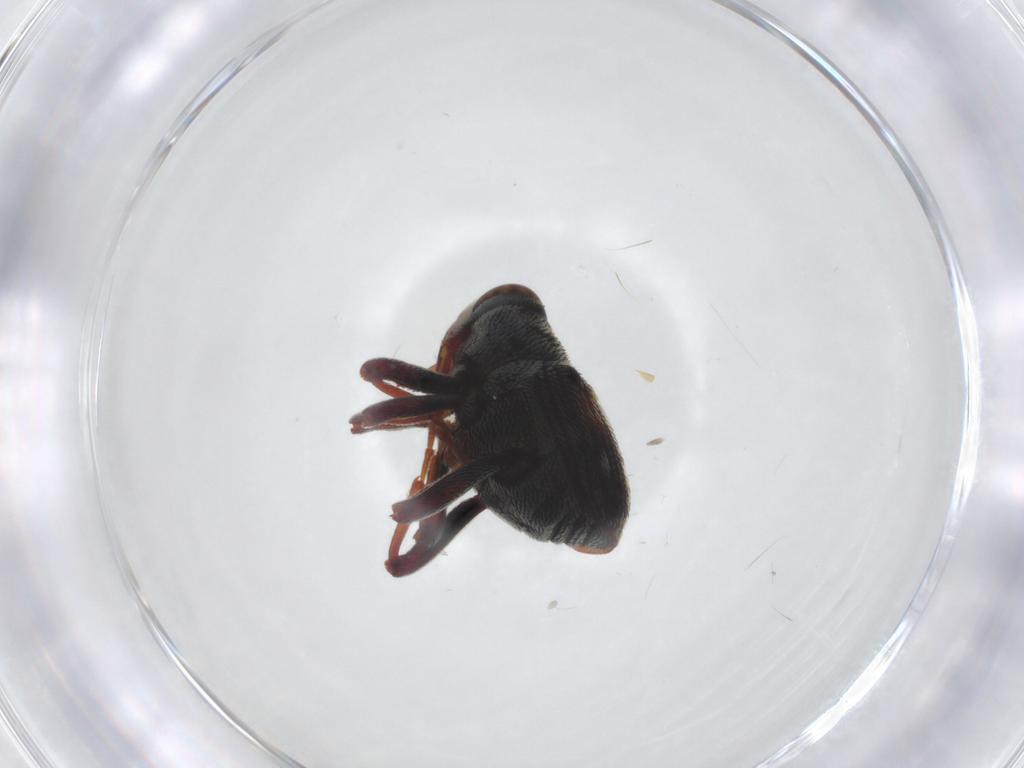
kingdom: Animalia
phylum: Arthropoda
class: Insecta
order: Coleoptera
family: Curculionidae
